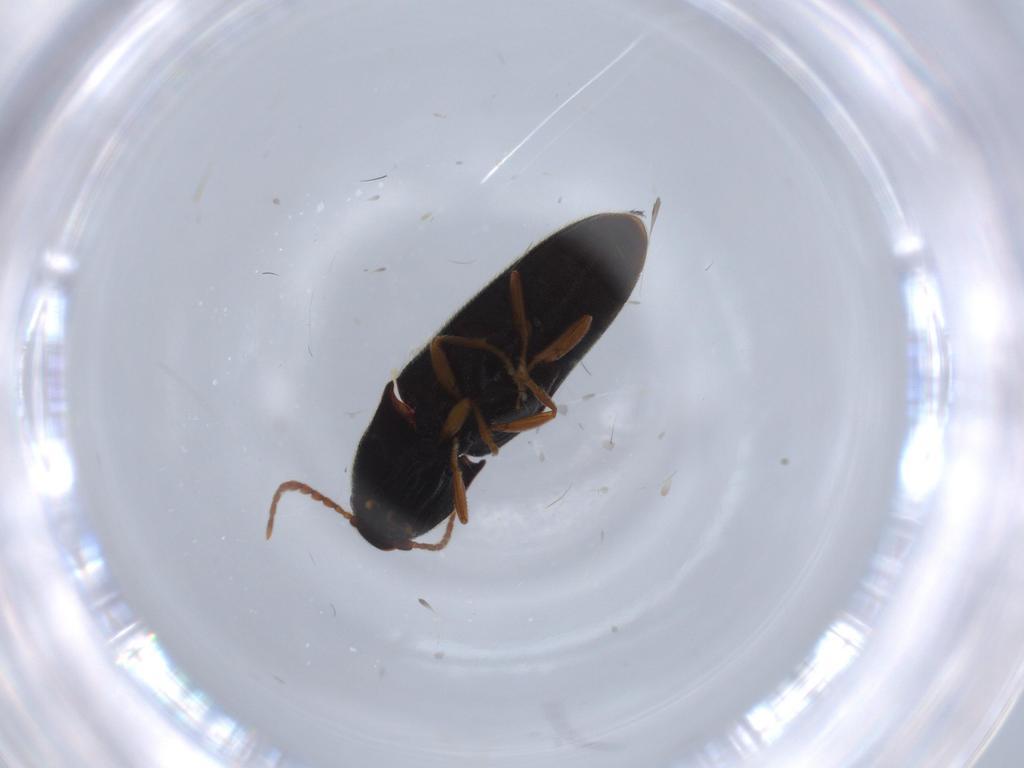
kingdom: Animalia
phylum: Arthropoda
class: Insecta
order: Coleoptera
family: Elateridae
